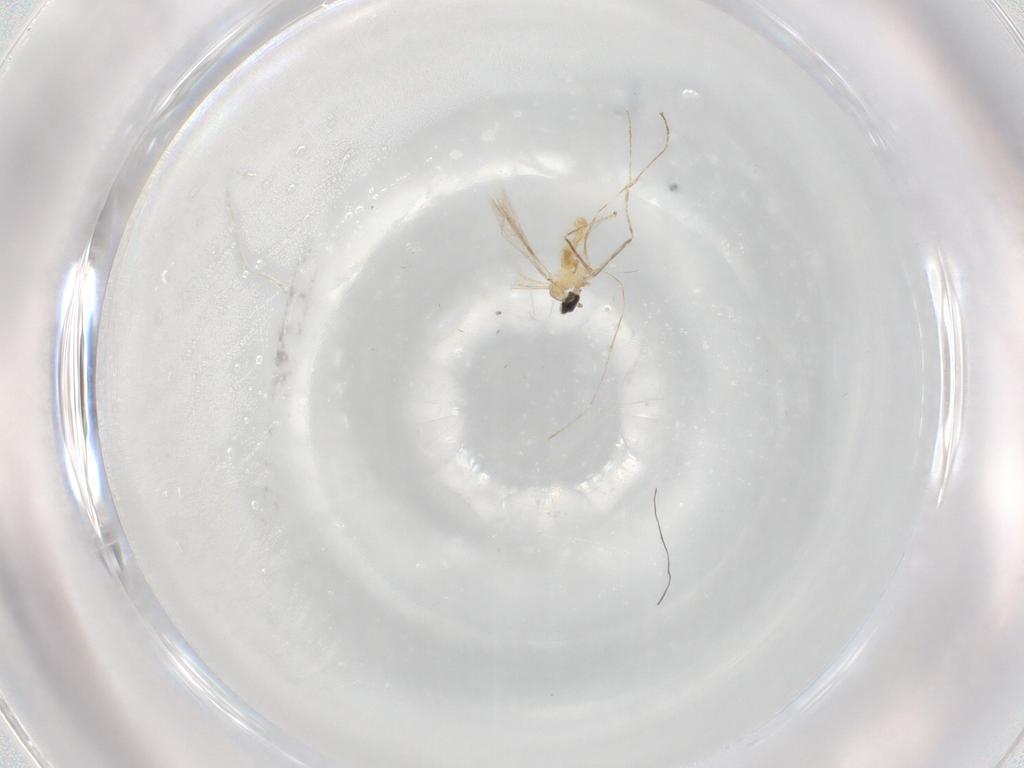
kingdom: Animalia
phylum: Arthropoda
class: Insecta
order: Diptera
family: Cecidomyiidae
